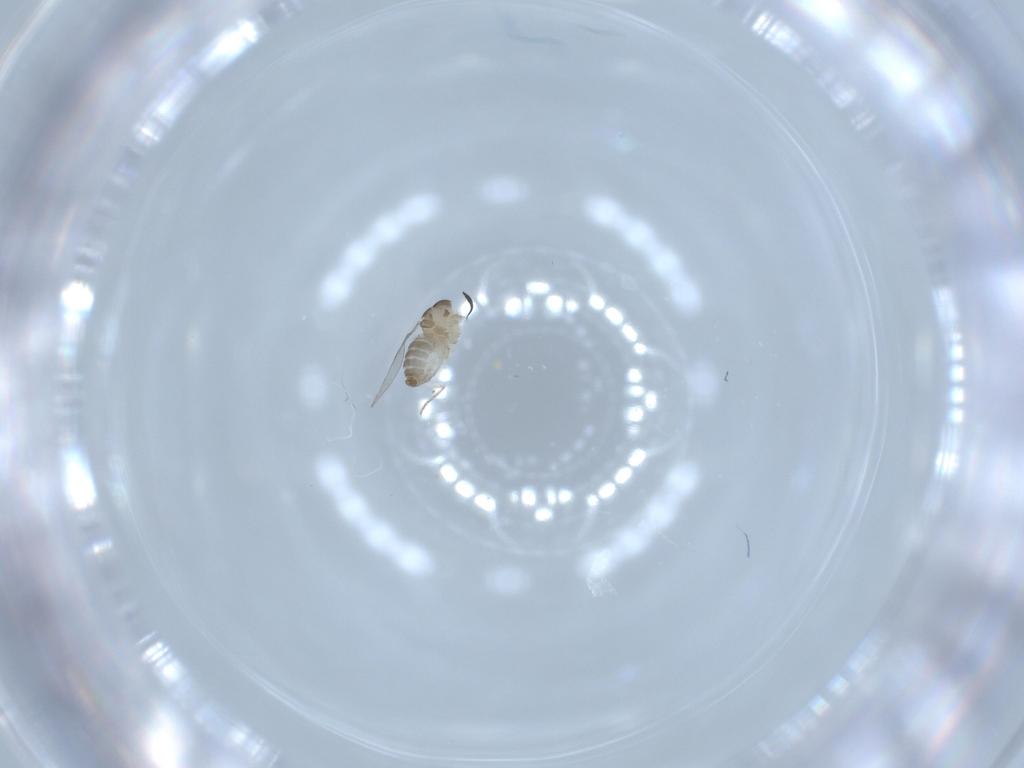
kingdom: Animalia
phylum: Arthropoda
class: Insecta
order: Diptera
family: Cecidomyiidae
